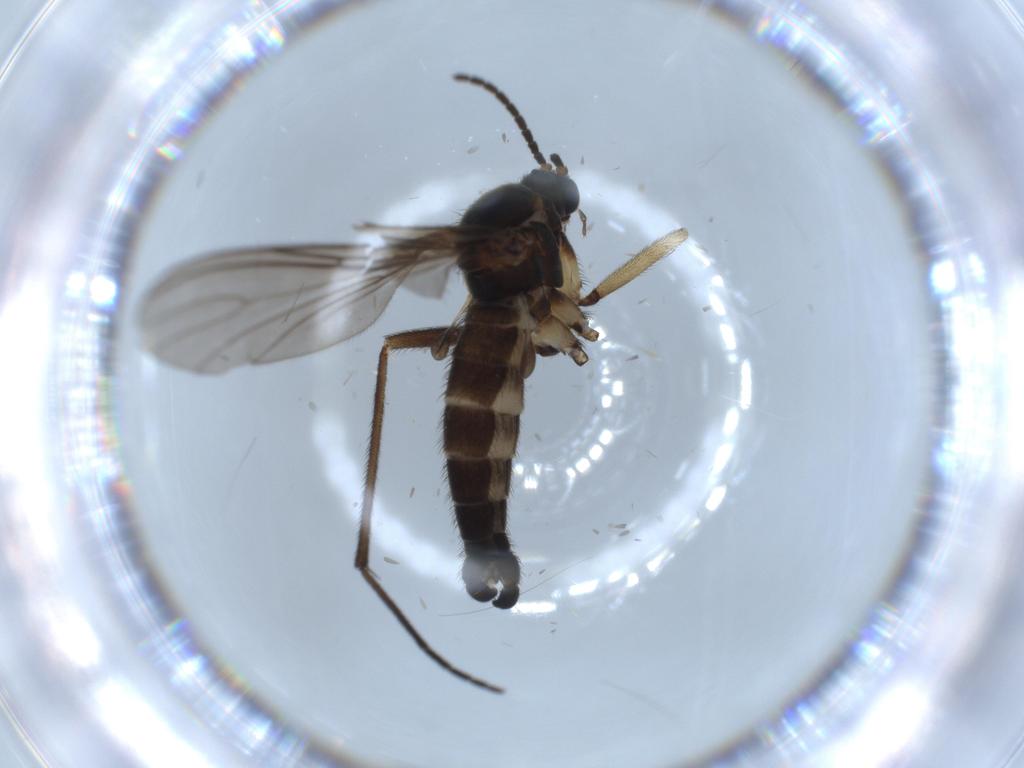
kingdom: Animalia
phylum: Arthropoda
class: Insecta
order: Diptera
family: Sciaridae
